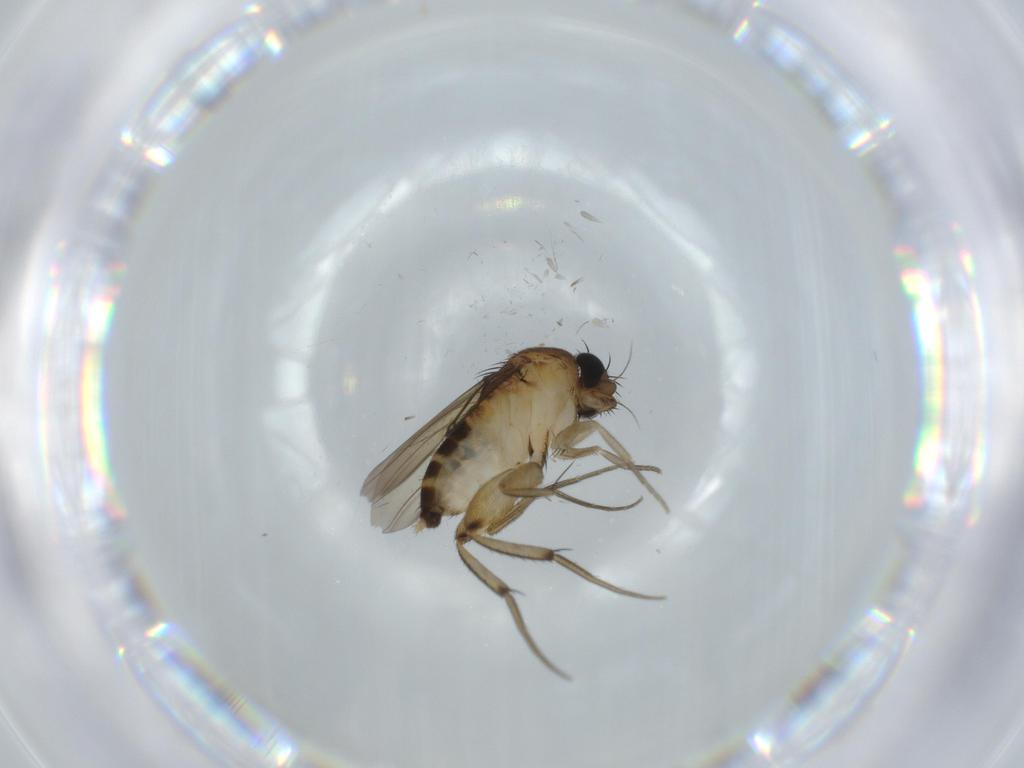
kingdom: Animalia
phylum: Arthropoda
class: Insecta
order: Diptera
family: Phoridae
